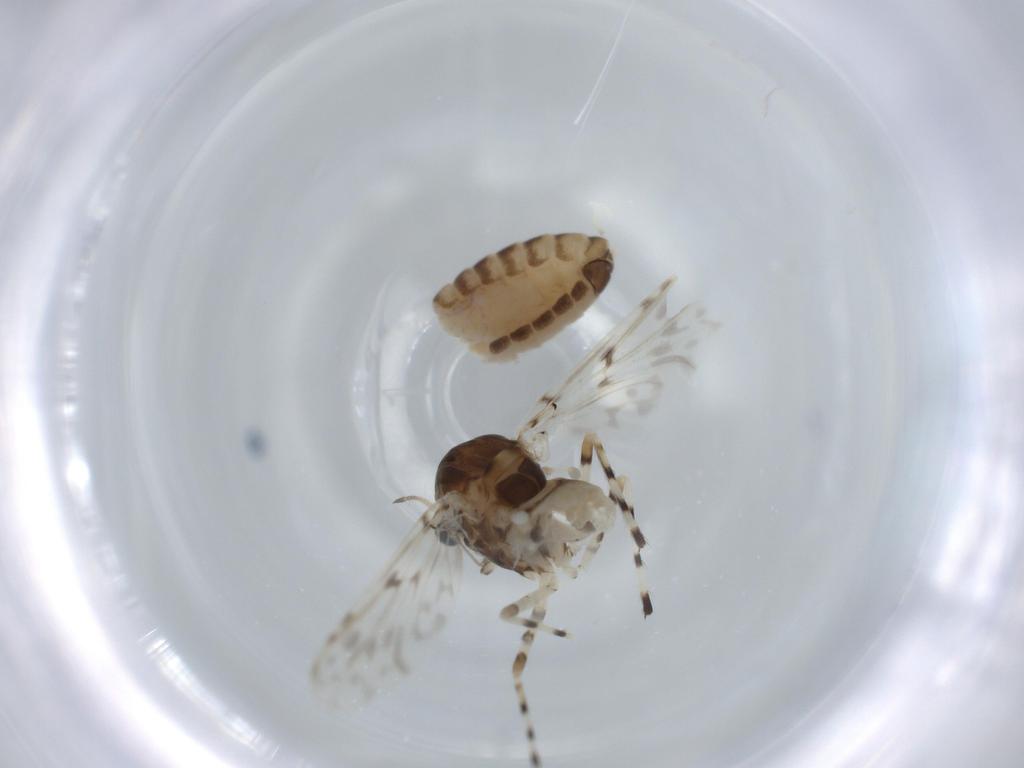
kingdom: Animalia
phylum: Arthropoda
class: Insecta
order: Diptera
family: Chironomidae
